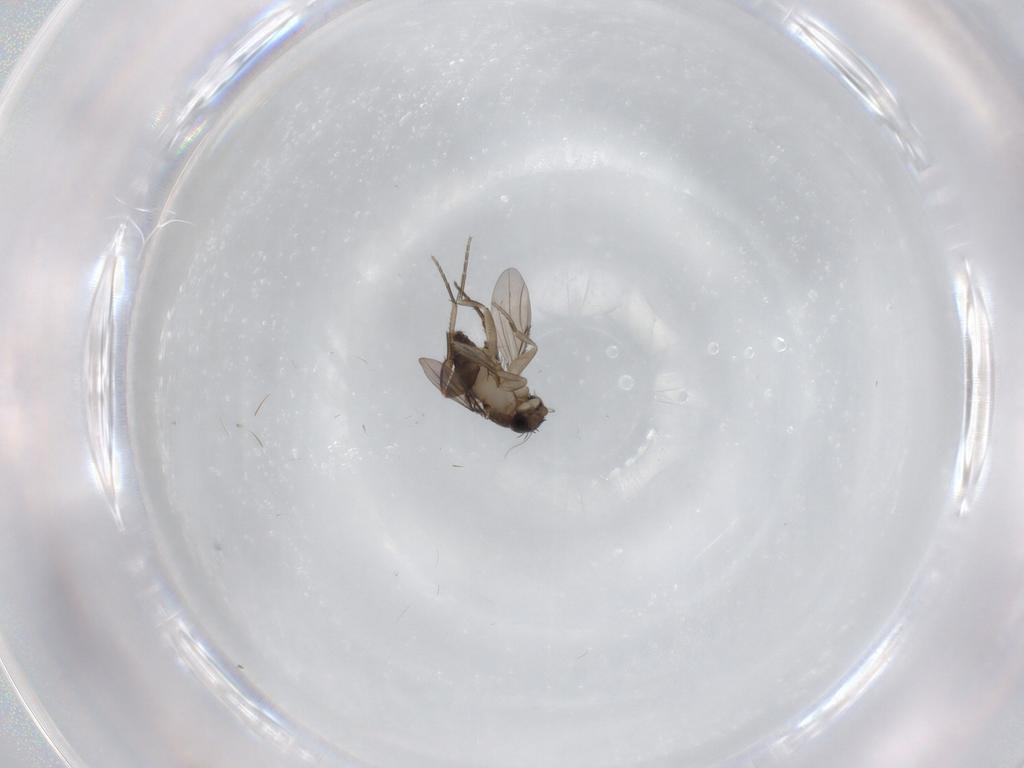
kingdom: Animalia
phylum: Arthropoda
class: Insecta
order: Diptera
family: Phoridae
